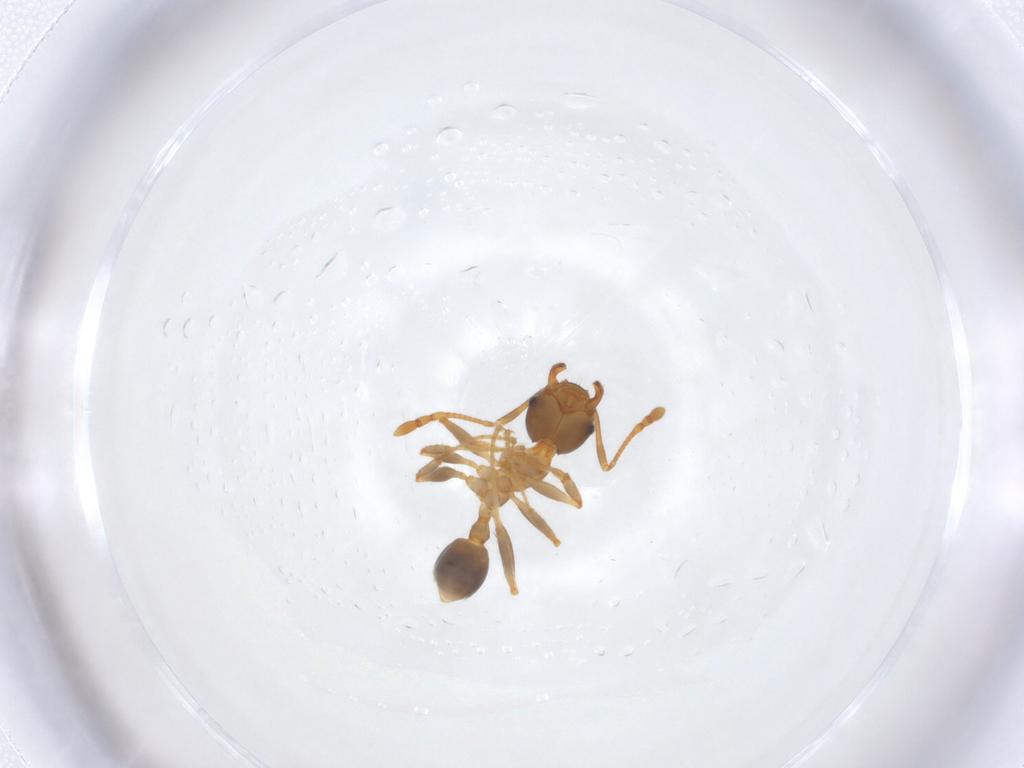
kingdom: Animalia
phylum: Arthropoda
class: Insecta
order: Hymenoptera
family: Formicidae
